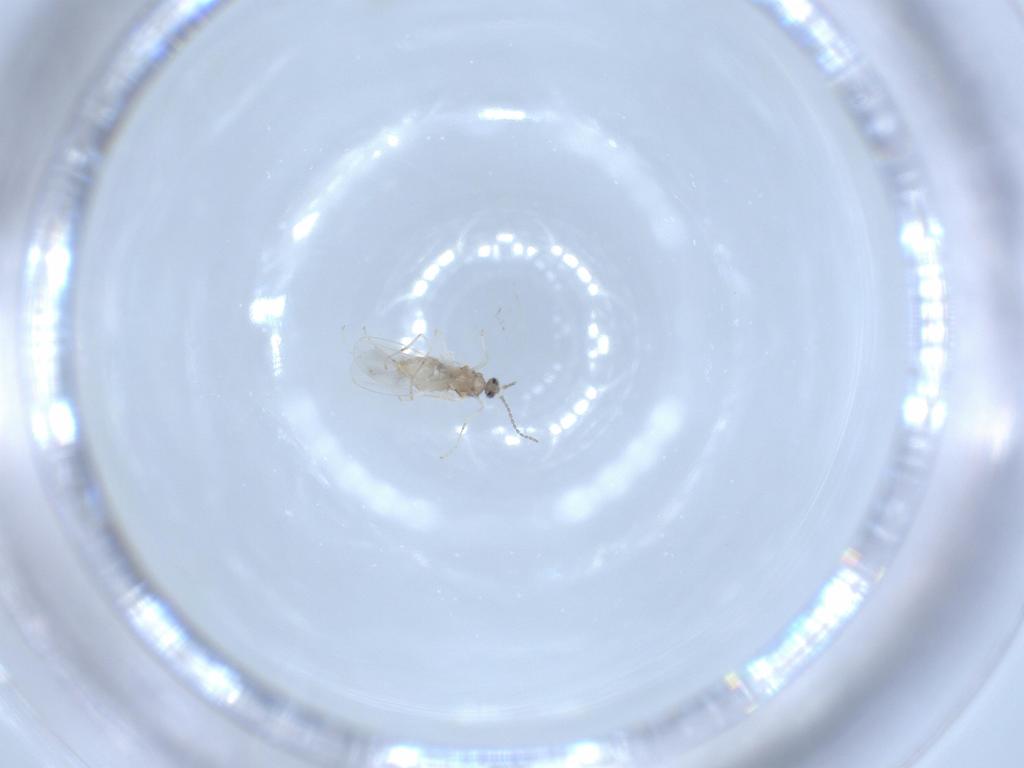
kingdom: Animalia
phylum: Arthropoda
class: Insecta
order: Diptera
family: Cecidomyiidae
